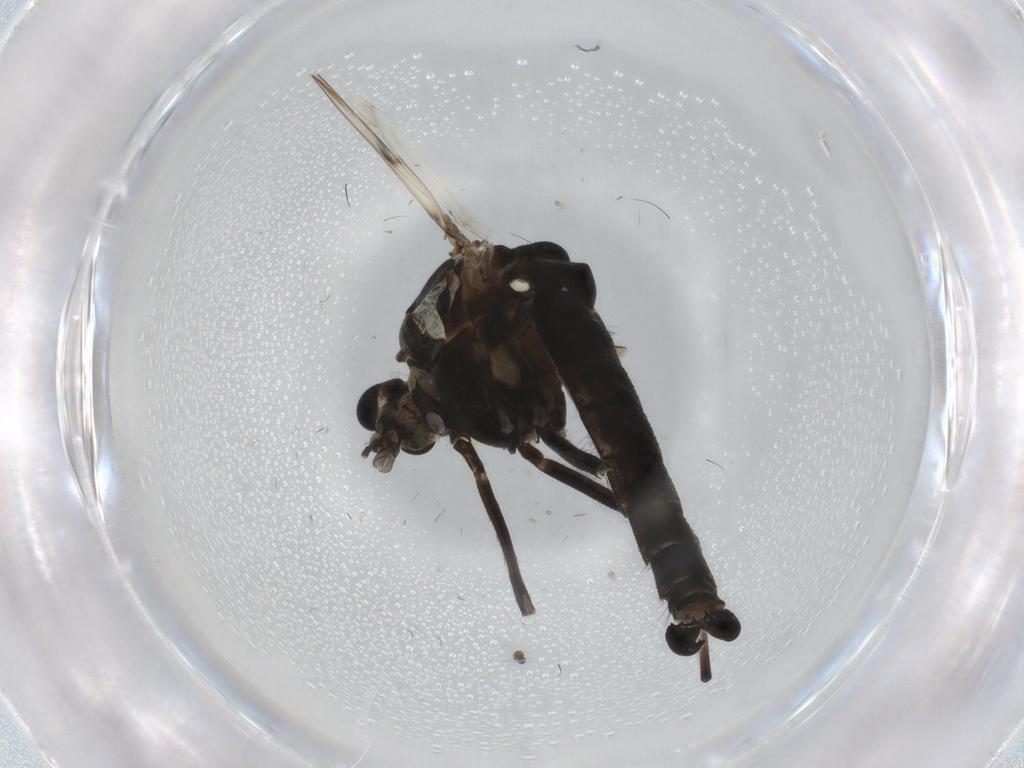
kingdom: Animalia
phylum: Arthropoda
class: Insecta
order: Diptera
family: Chironomidae
